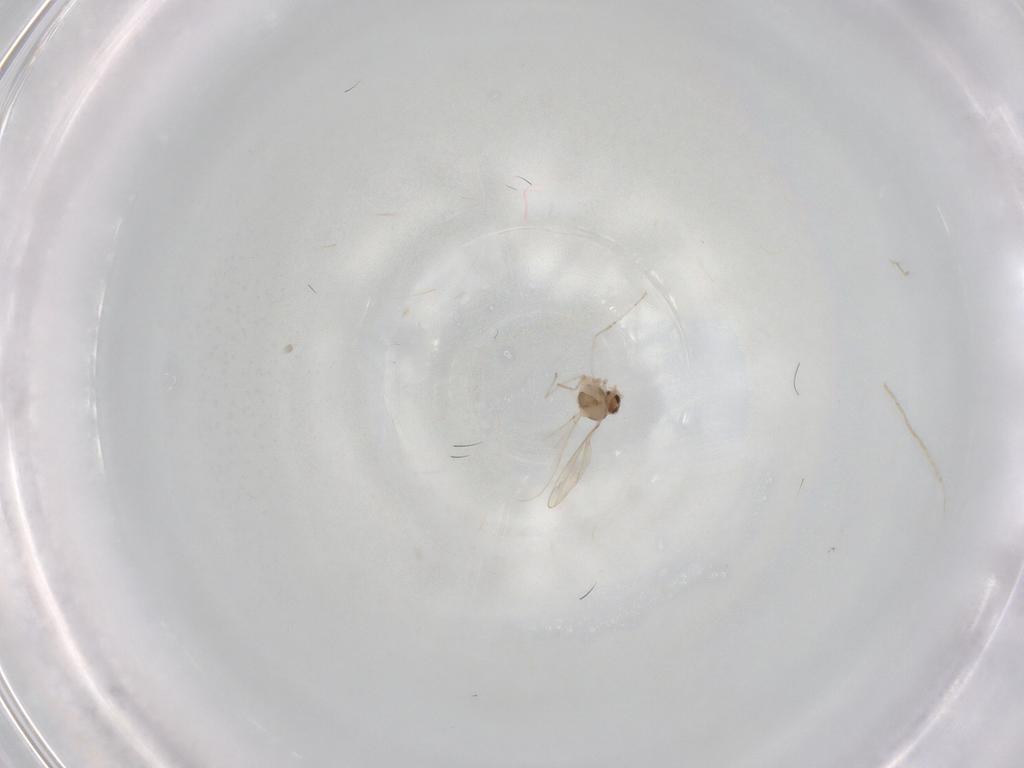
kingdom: Animalia
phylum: Arthropoda
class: Insecta
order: Diptera
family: Cecidomyiidae
